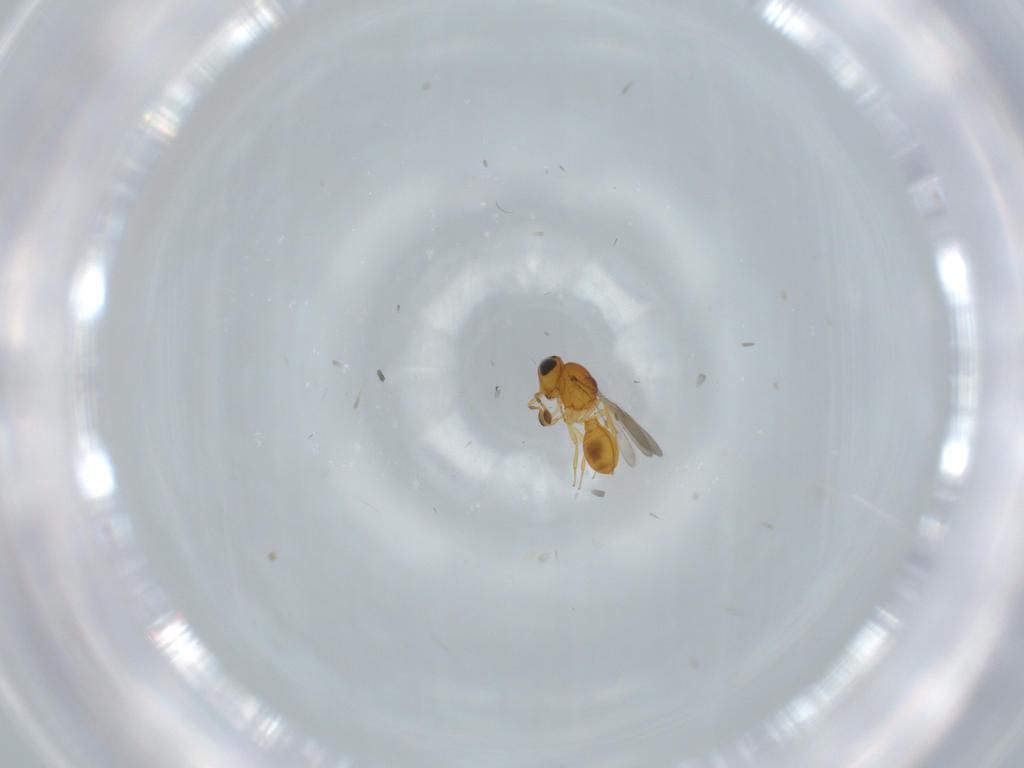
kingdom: Animalia
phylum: Arthropoda
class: Insecta
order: Hymenoptera
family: Scelionidae
